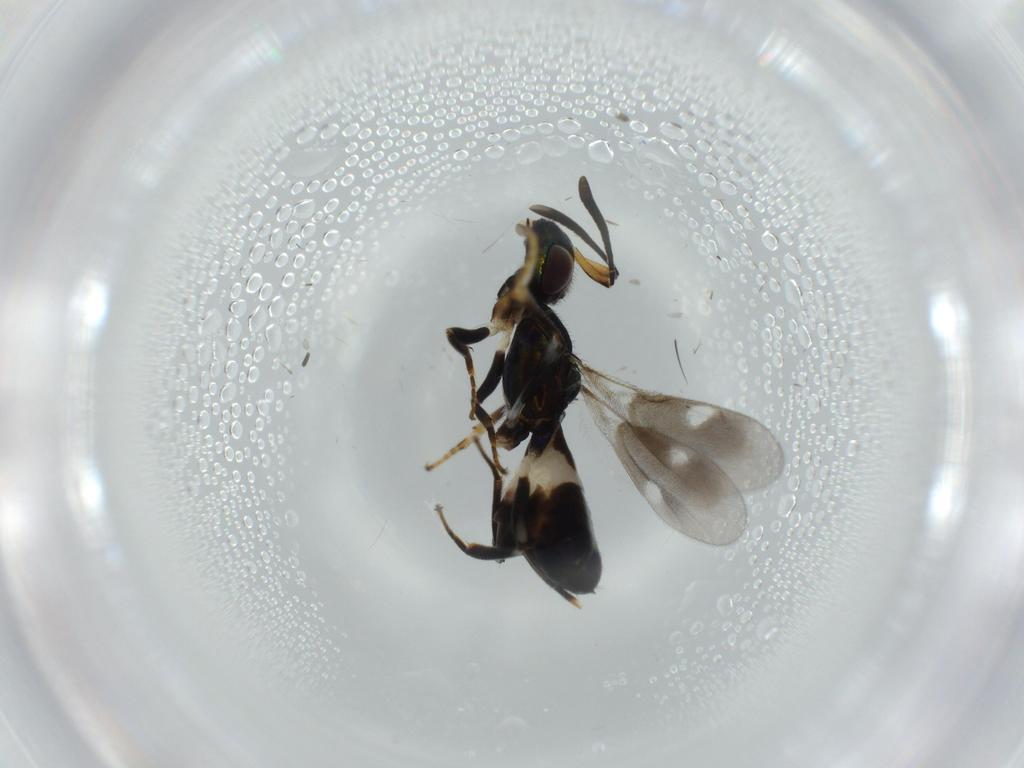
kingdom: Animalia
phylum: Arthropoda
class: Insecta
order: Hymenoptera
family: Eupelmidae
